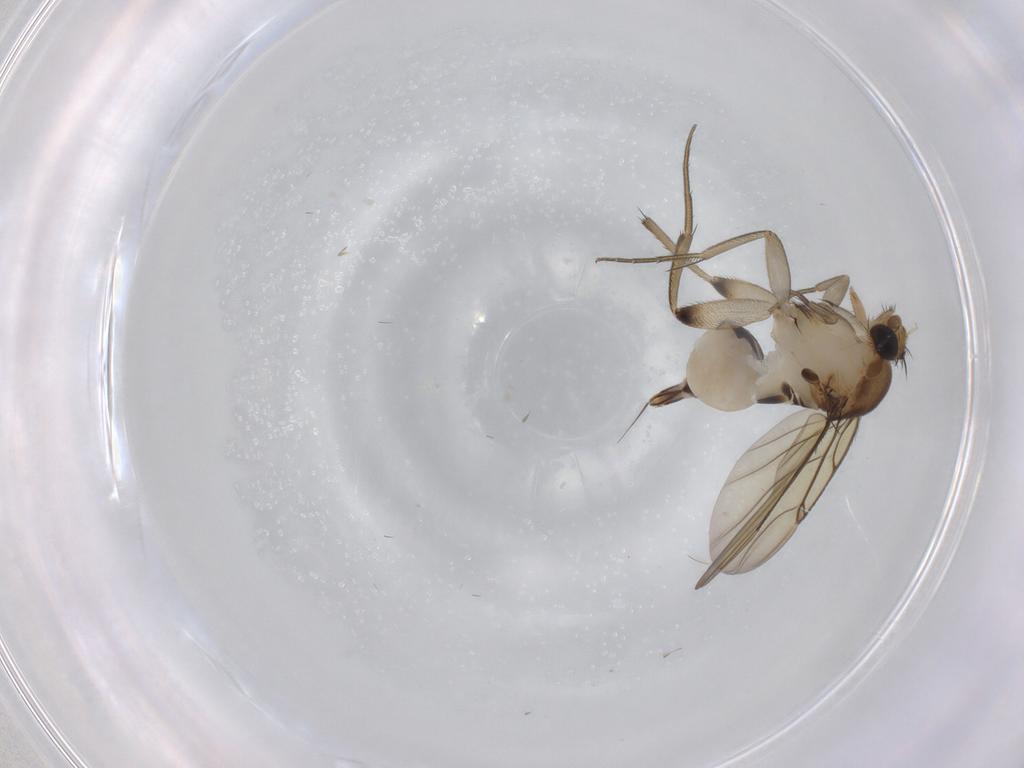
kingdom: Animalia
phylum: Arthropoda
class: Insecta
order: Diptera
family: Phoridae
